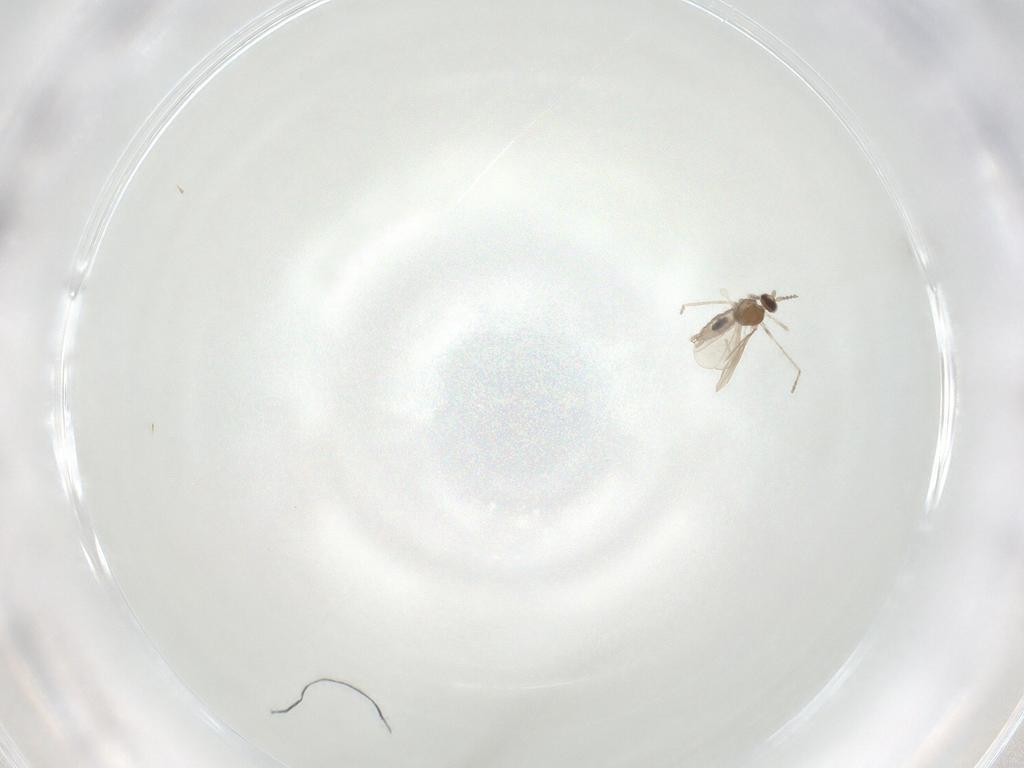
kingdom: Animalia
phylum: Arthropoda
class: Insecta
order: Diptera
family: Cecidomyiidae
